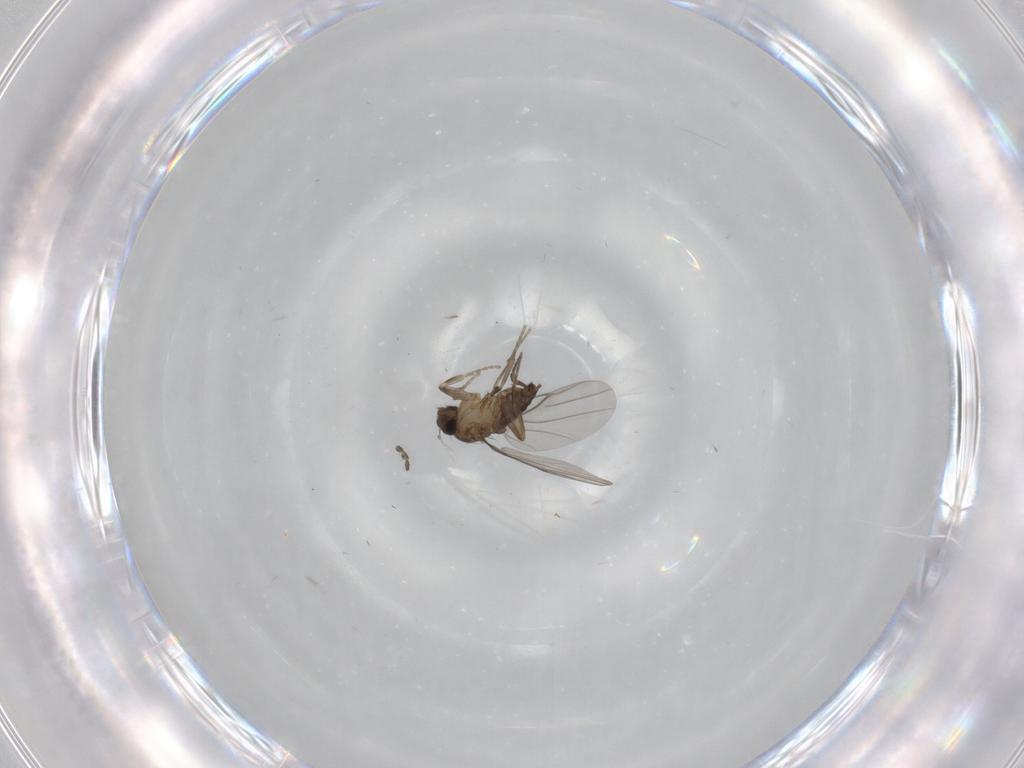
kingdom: Animalia
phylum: Arthropoda
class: Insecta
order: Diptera
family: Limoniidae
